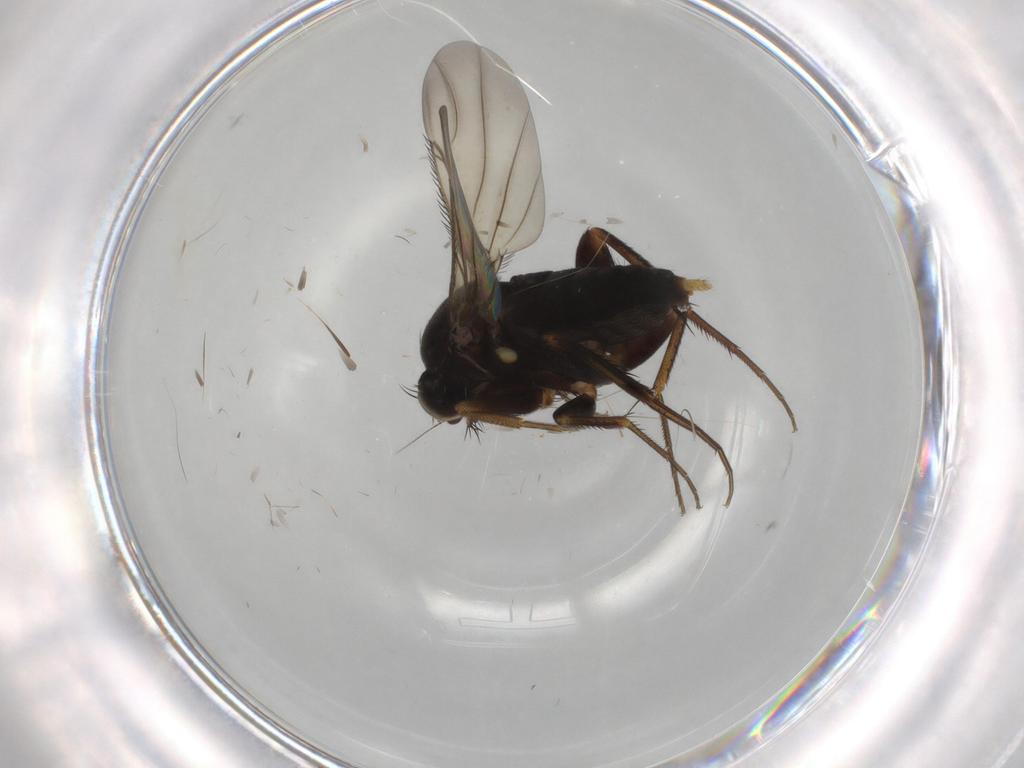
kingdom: Animalia
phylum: Arthropoda
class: Insecta
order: Diptera
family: Phoridae
